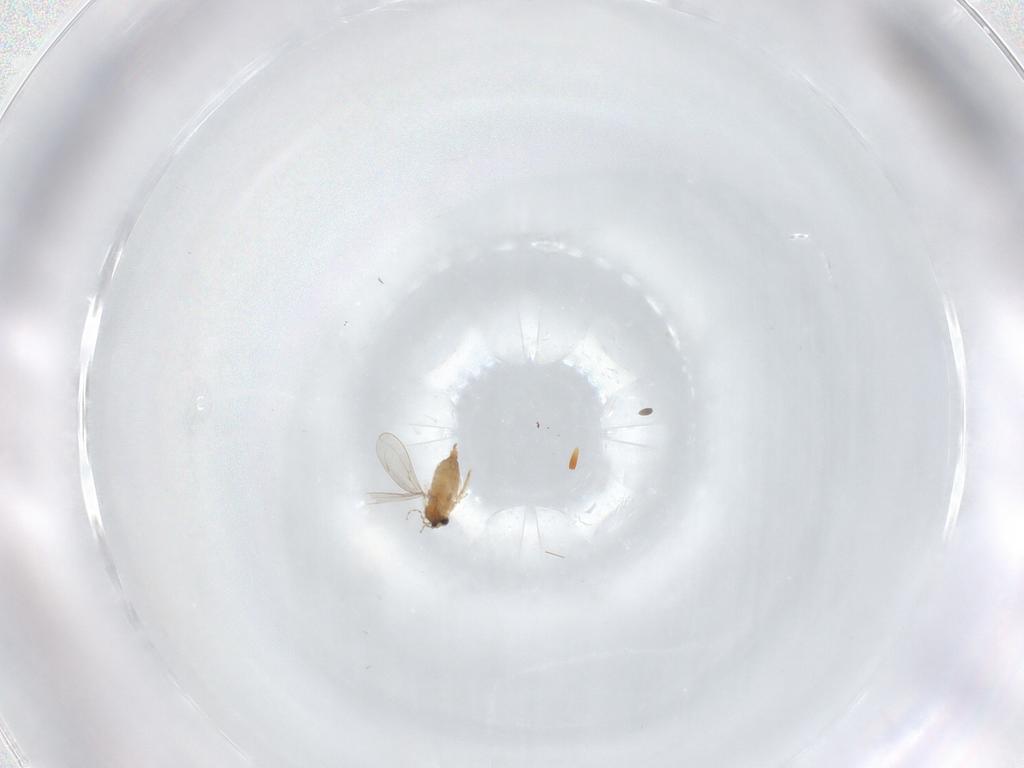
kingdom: Animalia
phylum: Arthropoda
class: Insecta
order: Diptera
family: Cecidomyiidae
